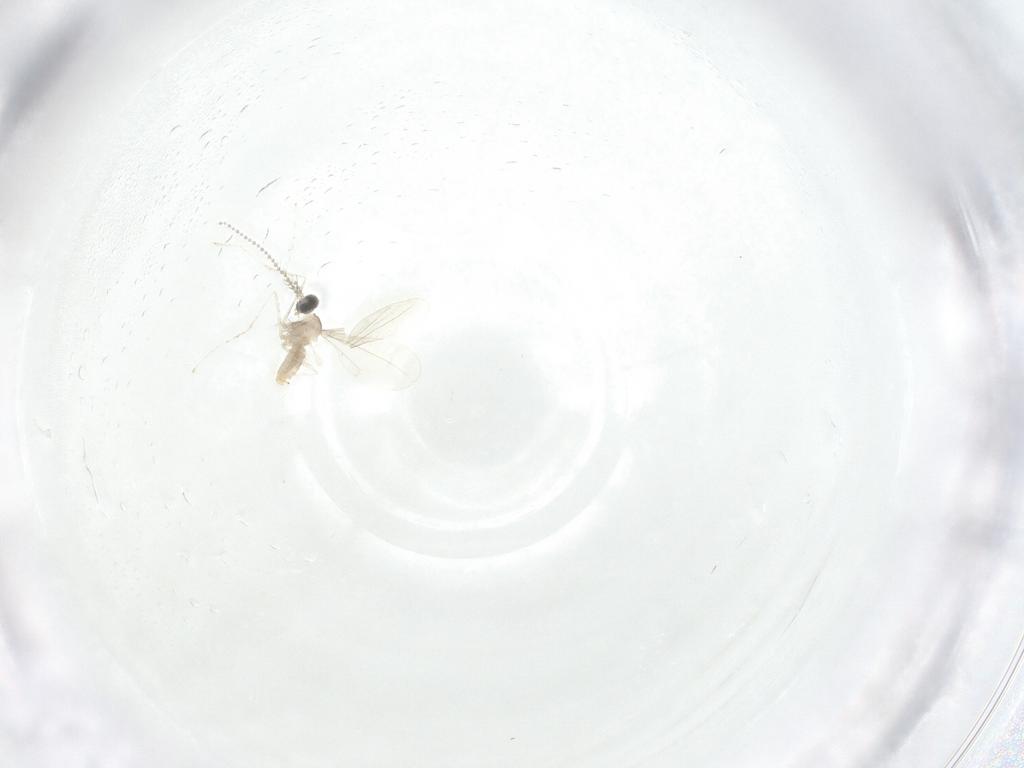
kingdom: Animalia
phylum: Arthropoda
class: Insecta
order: Diptera
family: Cecidomyiidae
